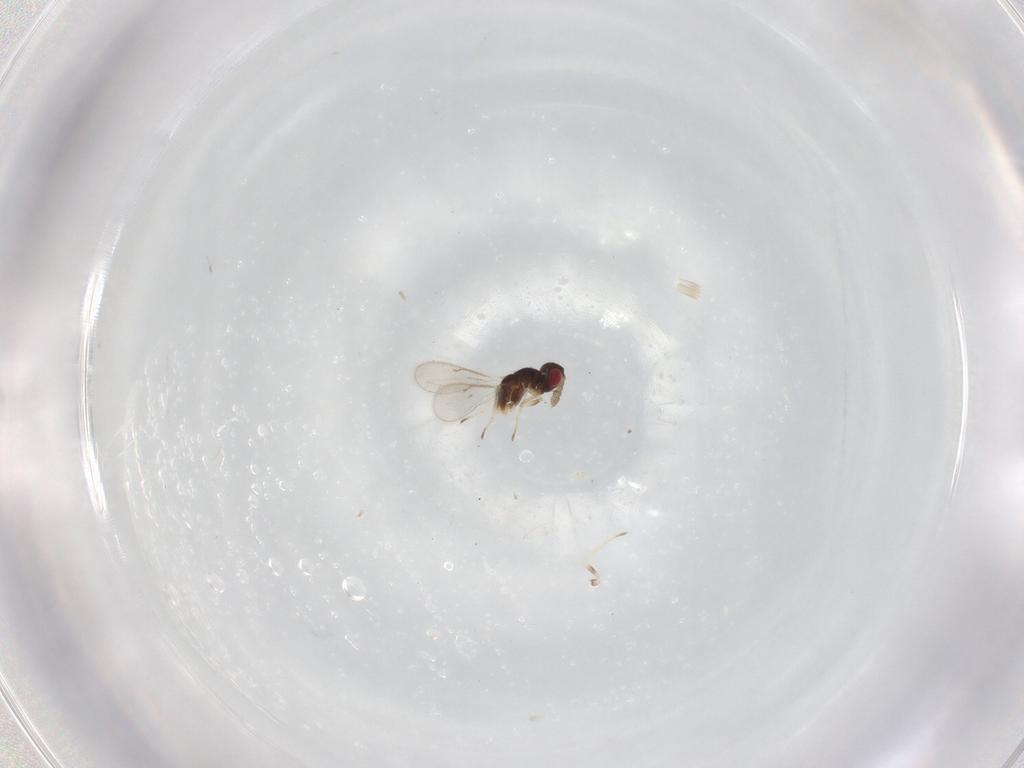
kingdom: Animalia
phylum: Arthropoda
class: Insecta
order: Hymenoptera
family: Eulophidae
